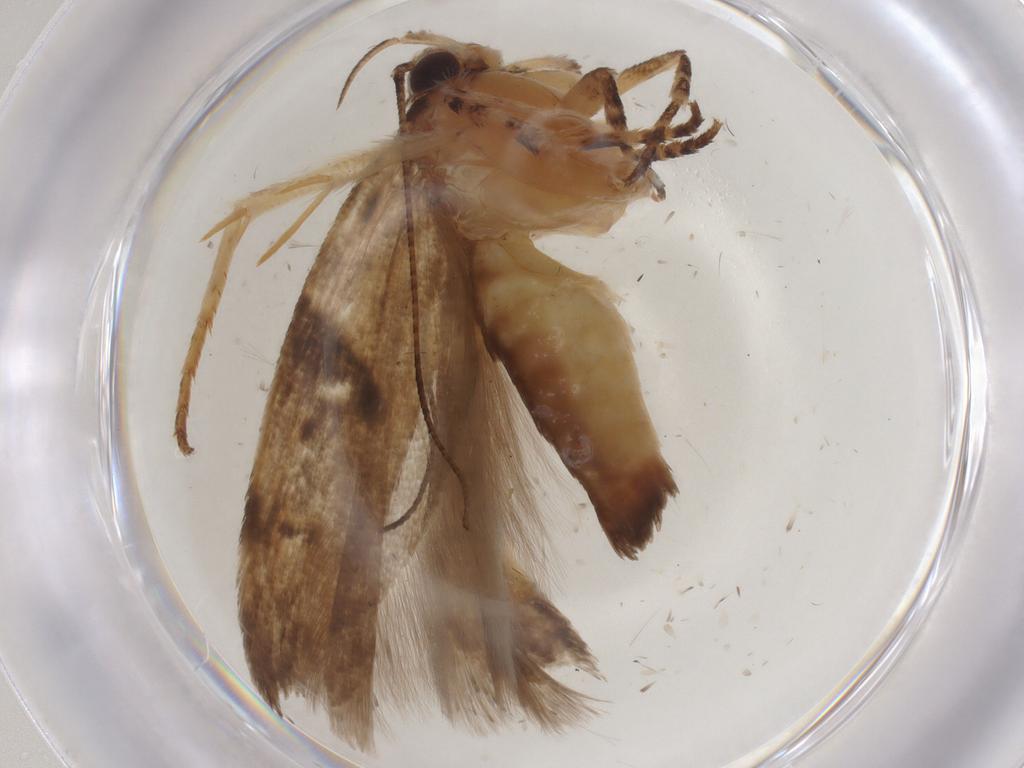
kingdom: Animalia
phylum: Arthropoda
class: Insecta
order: Lepidoptera
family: Gelechiidae
